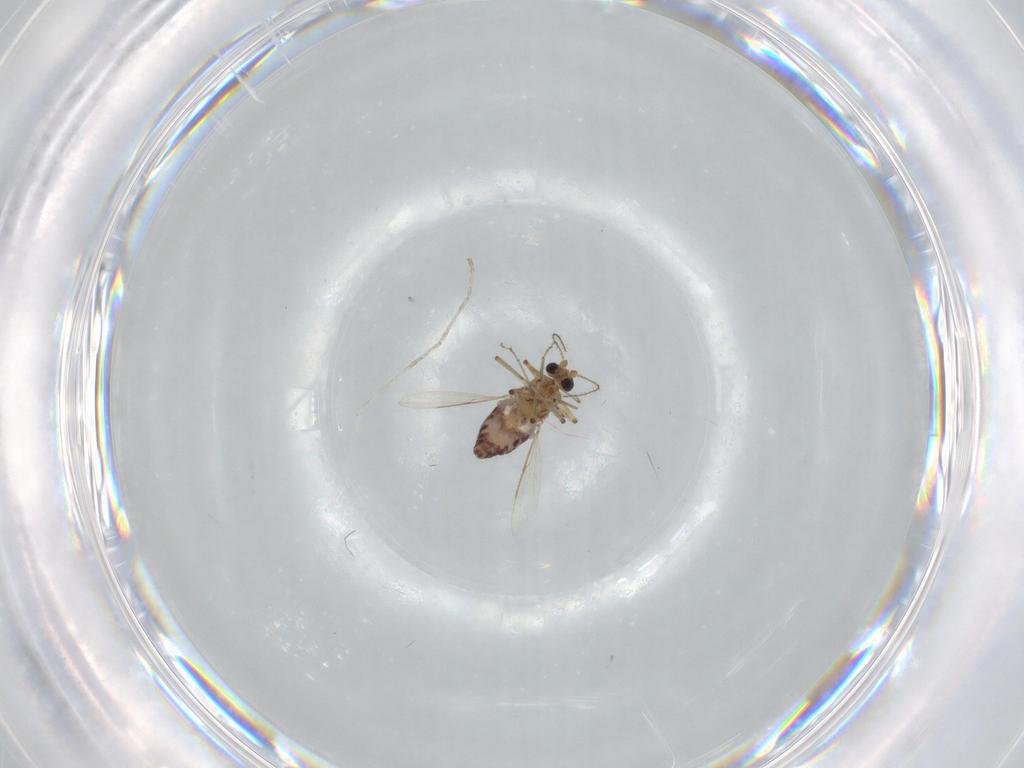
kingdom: Animalia
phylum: Arthropoda
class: Insecta
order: Diptera
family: Ceratopogonidae
